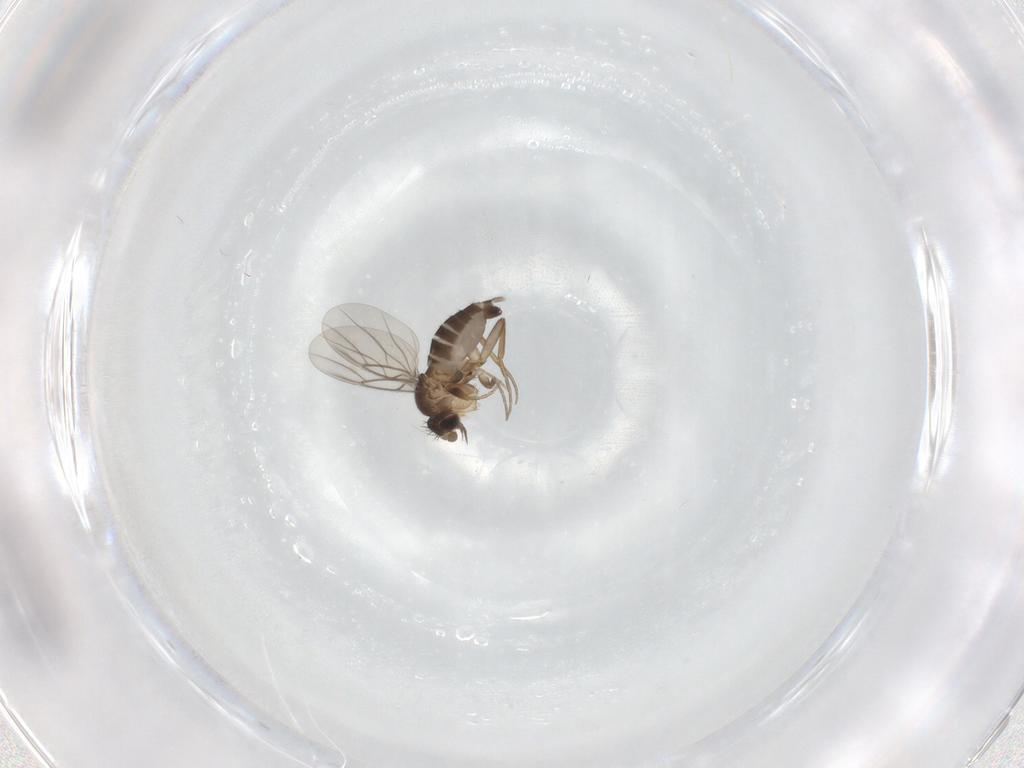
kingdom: Animalia
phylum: Arthropoda
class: Insecta
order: Diptera
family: Phoridae
